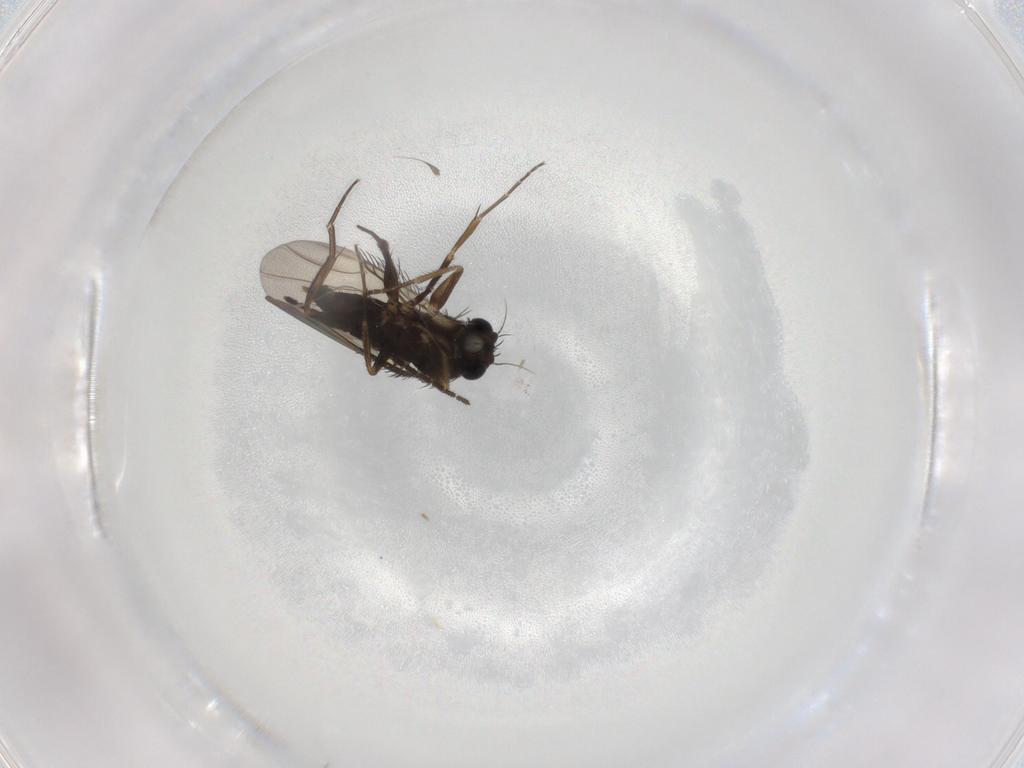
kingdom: Animalia
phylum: Arthropoda
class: Insecta
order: Diptera
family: Phoridae
